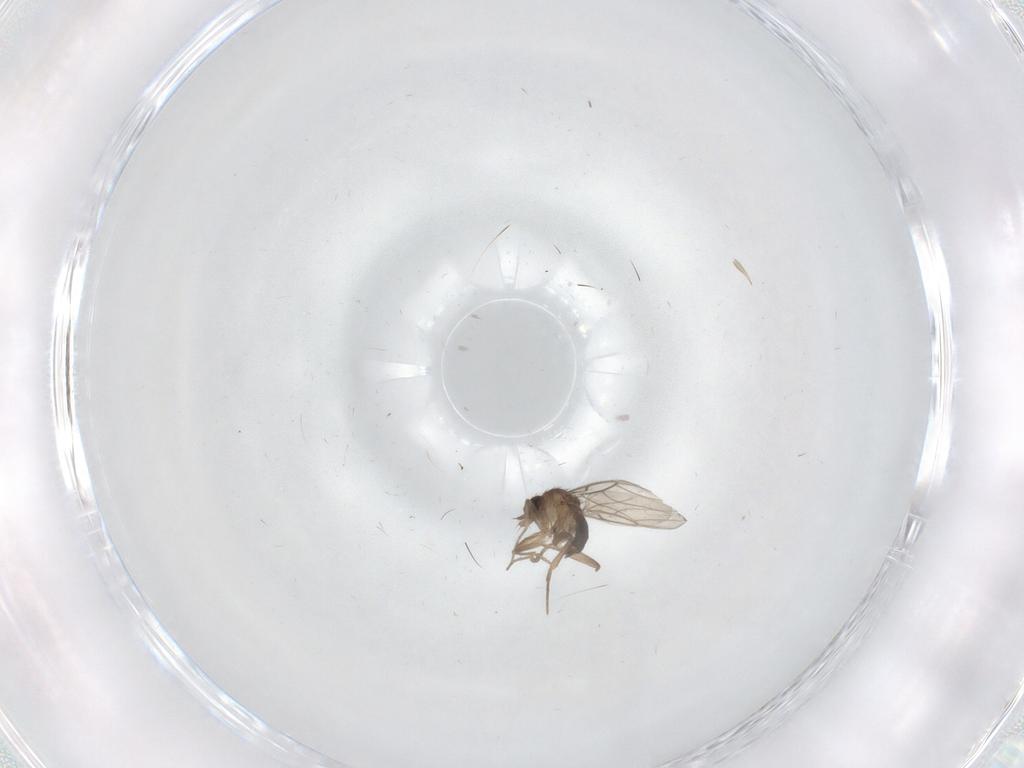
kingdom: Animalia
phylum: Arthropoda
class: Insecta
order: Diptera
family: Phoridae
